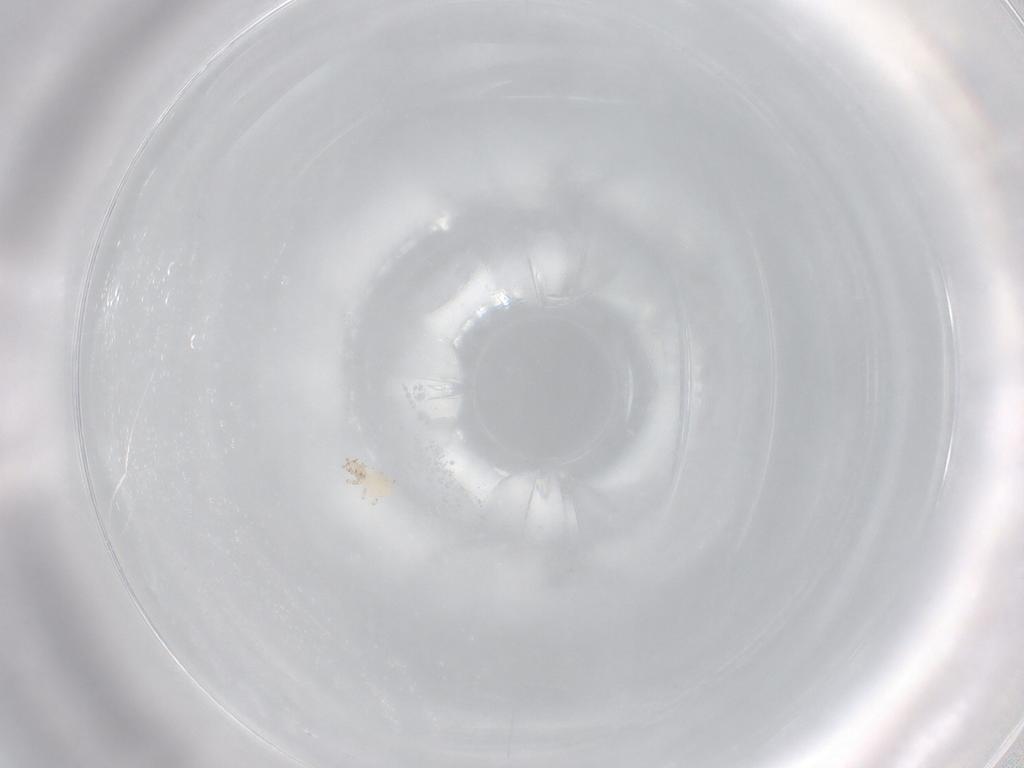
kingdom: Animalia
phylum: Arthropoda
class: Insecta
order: Thysanoptera
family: Thripidae
